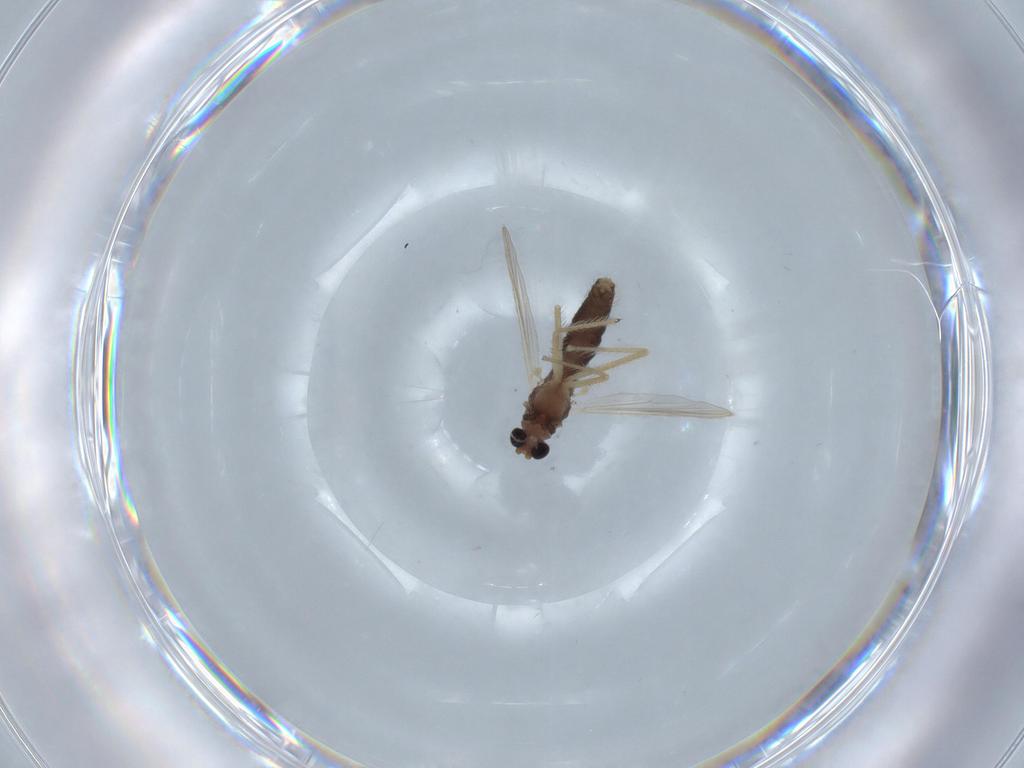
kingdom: Animalia
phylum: Arthropoda
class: Insecta
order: Diptera
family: Chironomidae
